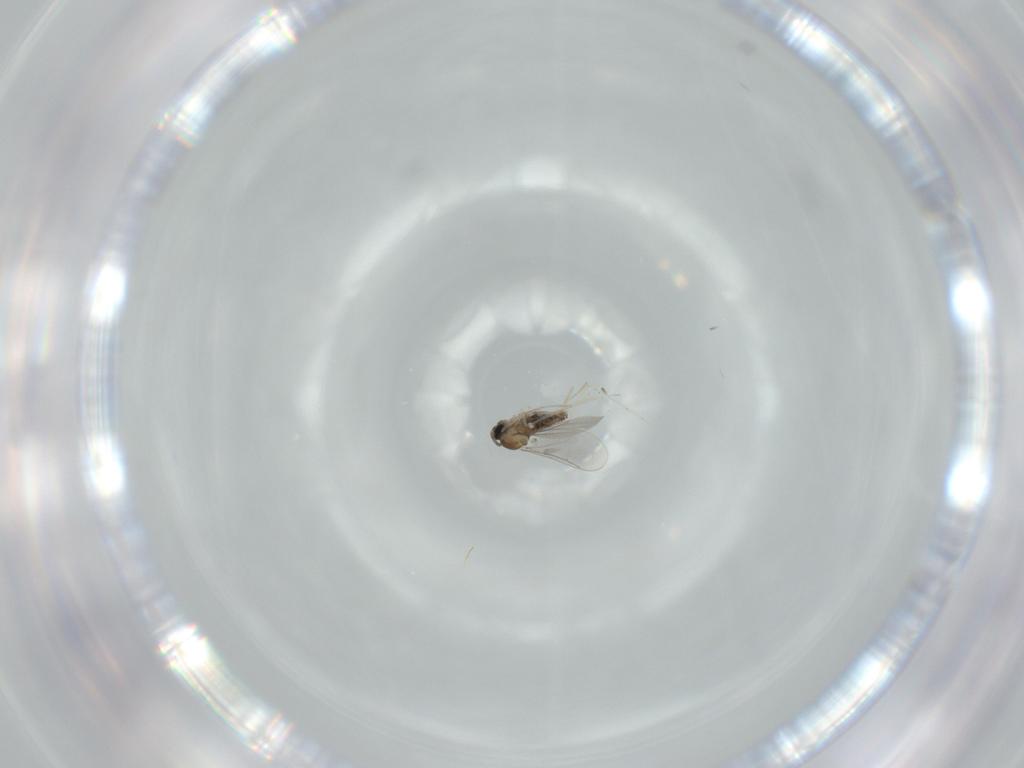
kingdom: Animalia
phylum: Arthropoda
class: Insecta
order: Diptera
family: Cecidomyiidae
